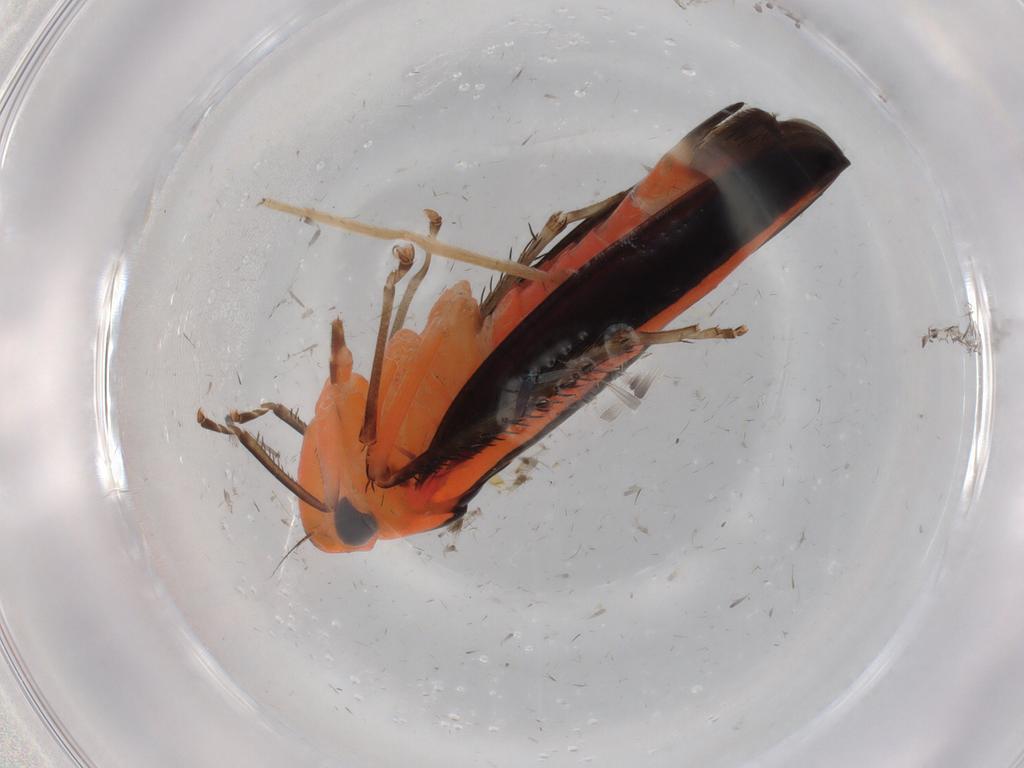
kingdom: Animalia
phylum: Arthropoda
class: Insecta
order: Hemiptera
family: Cicadellidae
